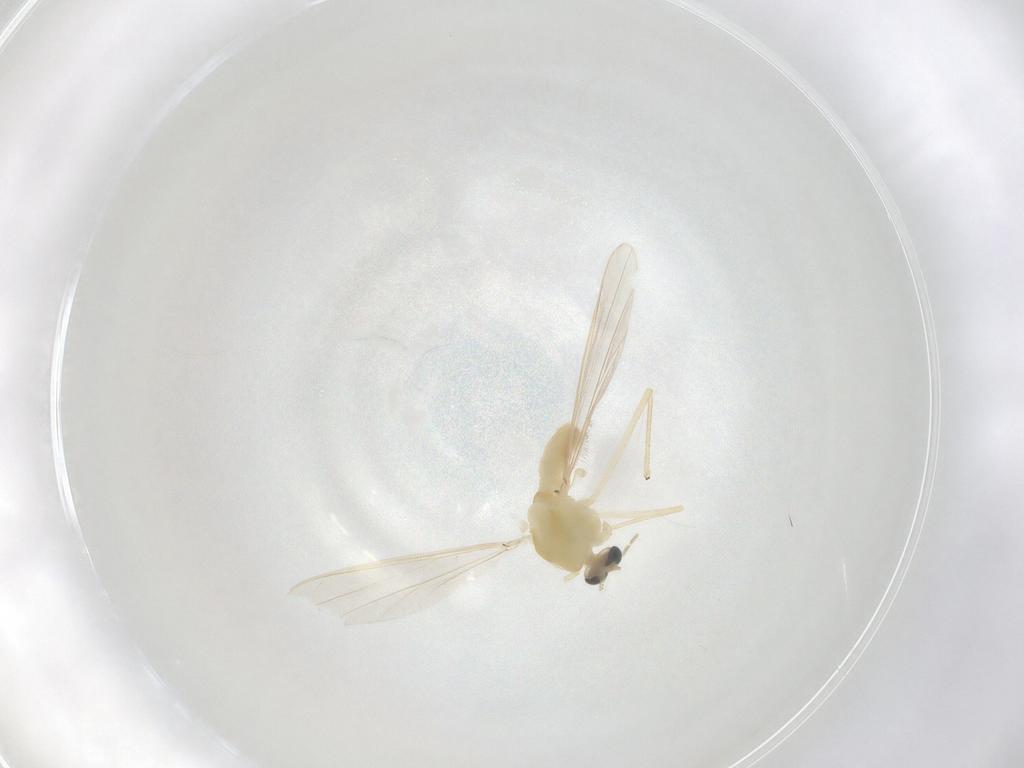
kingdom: Animalia
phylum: Arthropoda
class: Insecta
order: Diptera
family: Chironomidae
